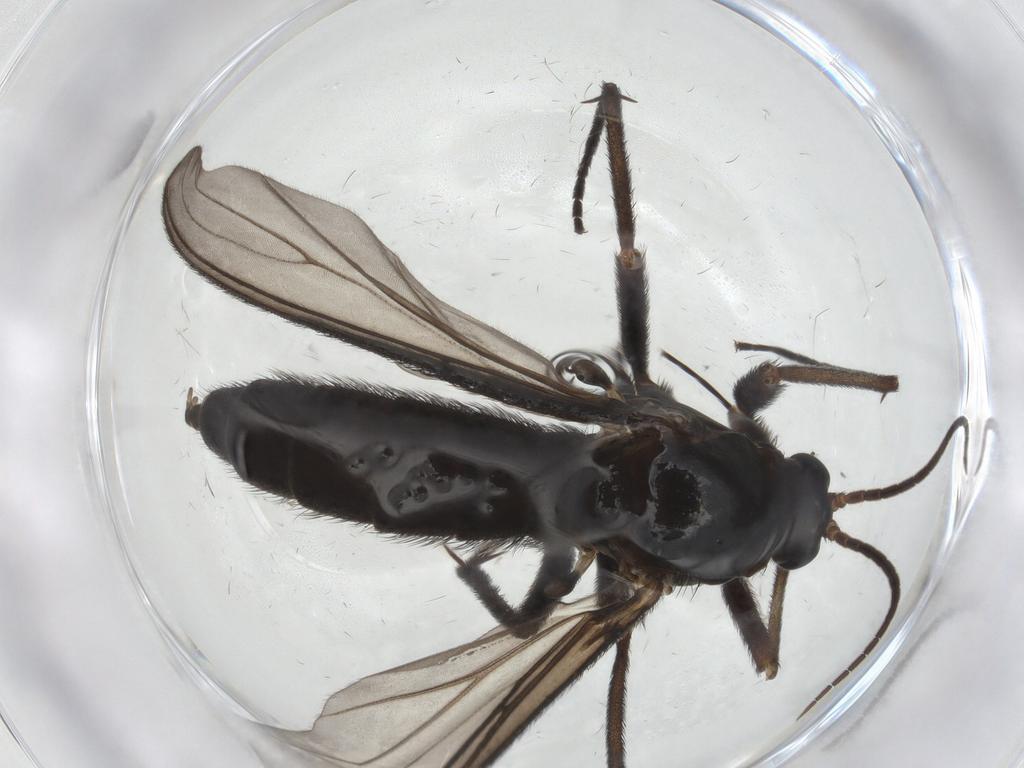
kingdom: Animalia
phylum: Arthropoda
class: Insecta
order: Diptera
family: Sciaridae
